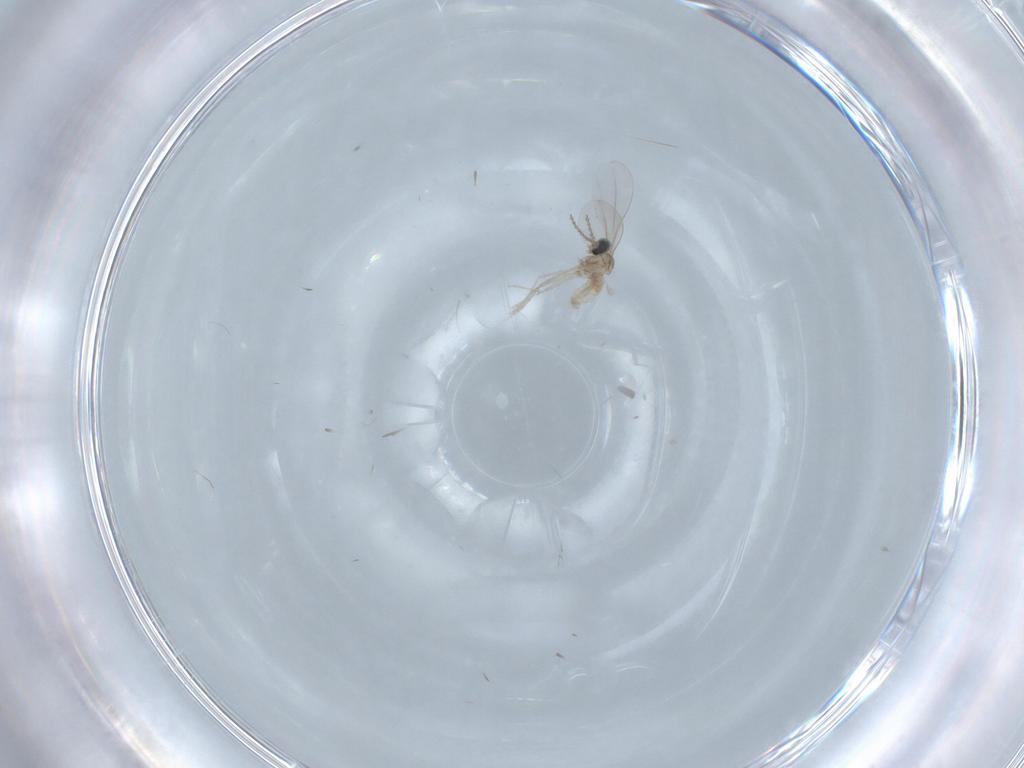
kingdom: Animalia
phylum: Arthropoda
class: Insecta
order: Diptera
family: Cecidomyiidae
